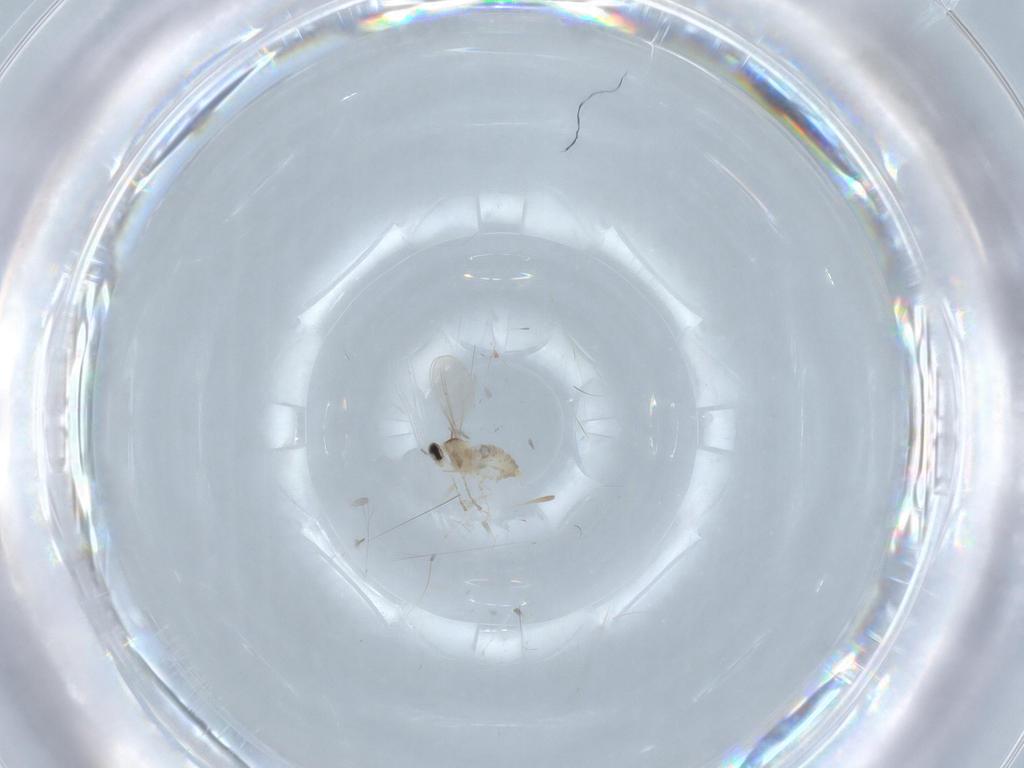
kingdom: Animalia
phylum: Arthropoda
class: Insecta
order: Diptera
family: Cecidomyiidae
